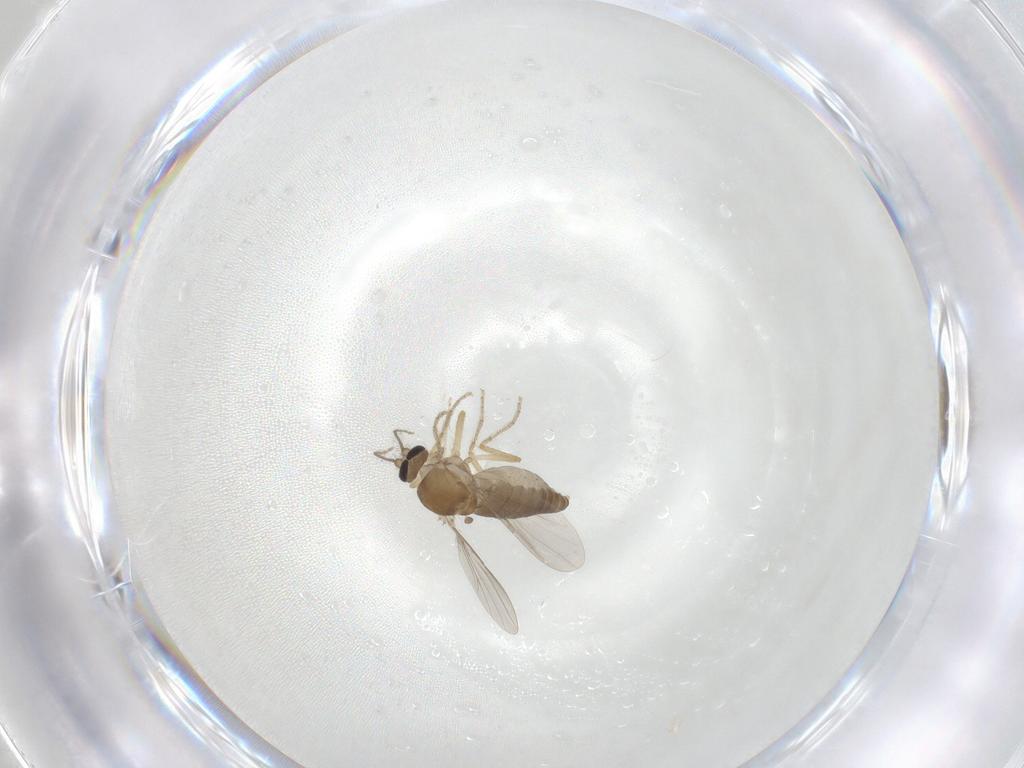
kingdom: Animalia
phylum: Arthropoda
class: Insecta
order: Diptera
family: Ceratopogonidae
